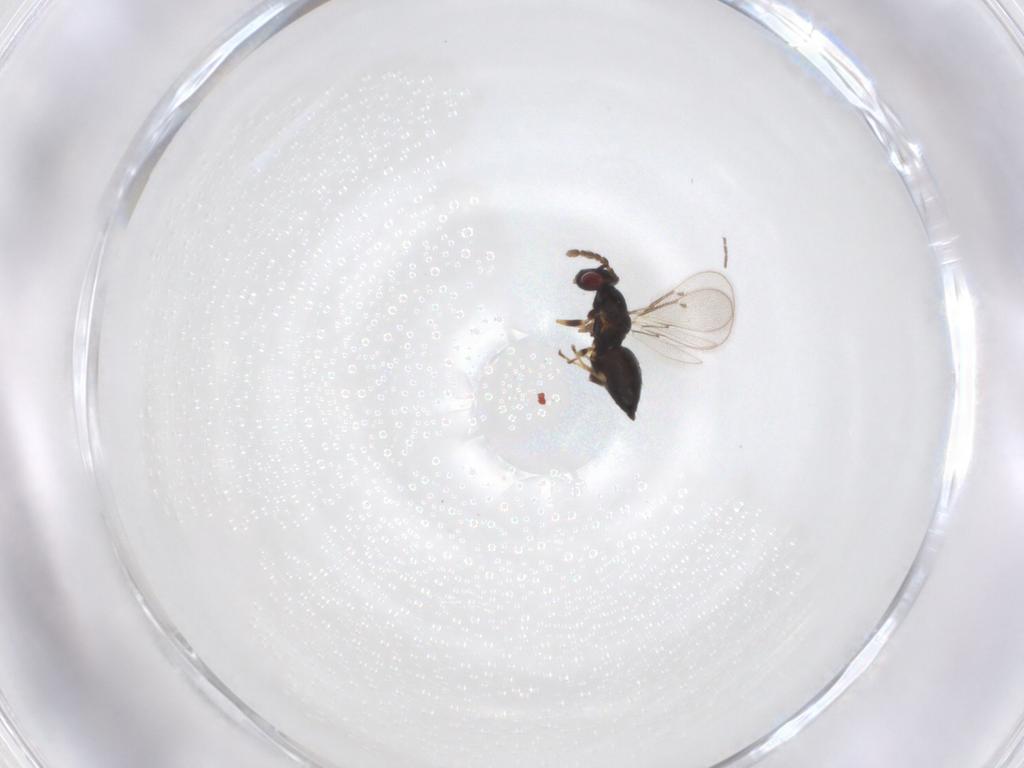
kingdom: Animalia
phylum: Arthropoda
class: Insecta
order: Hymenoptera
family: Eulophidae
